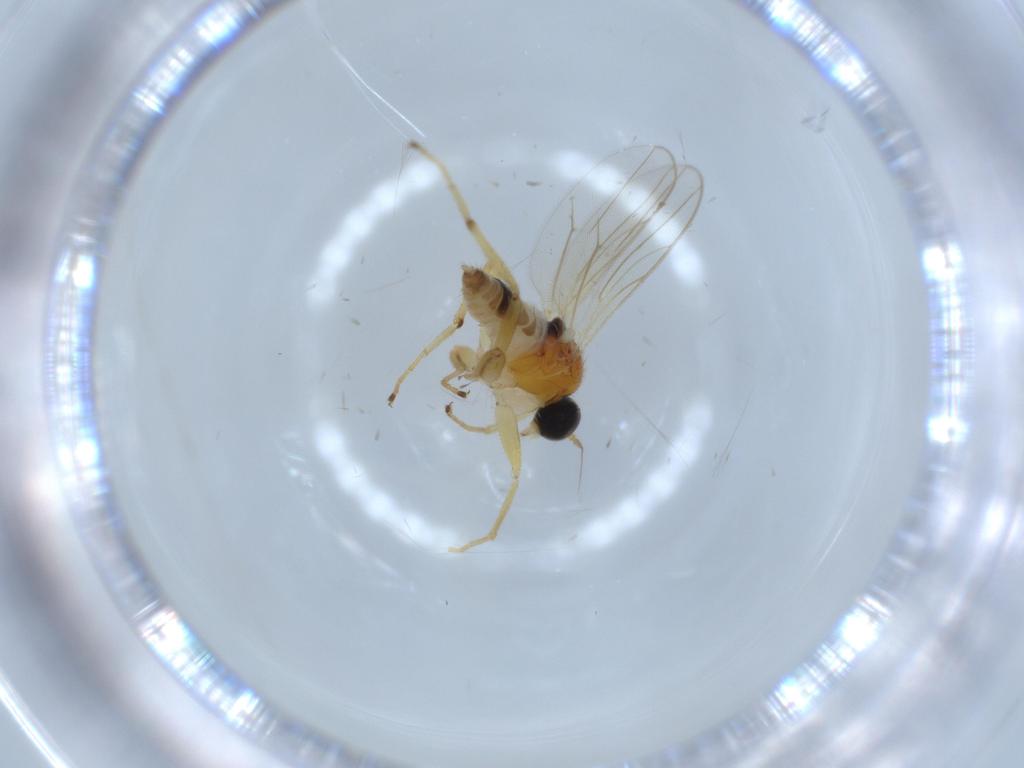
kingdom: Animalia
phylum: Arthropoda
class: Insecta
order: Diptera
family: Hybotidae
